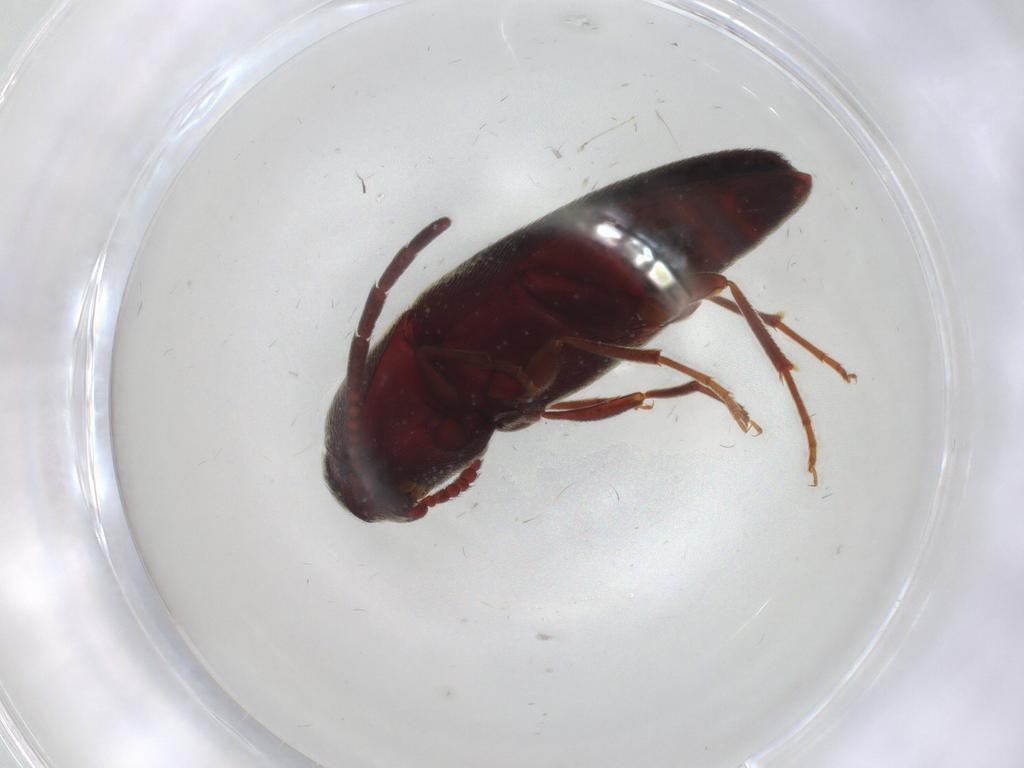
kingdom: Animalia
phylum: Arthropoda
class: Insecta
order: Coleoptera
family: Eucnemidae
